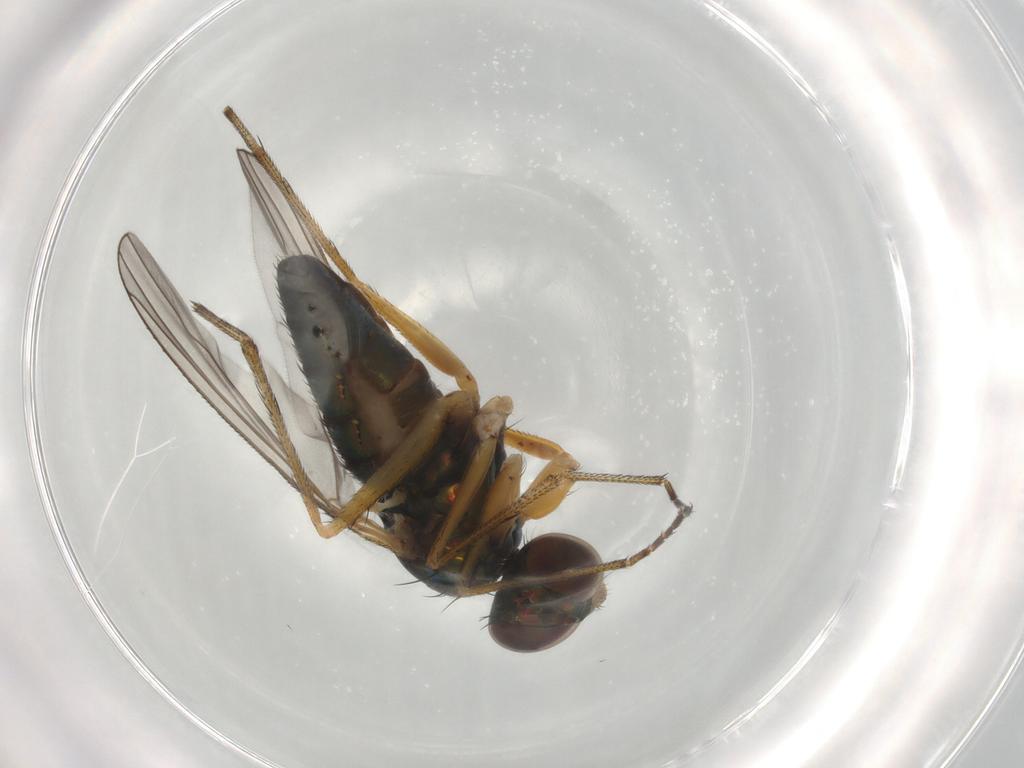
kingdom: Animalia
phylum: Arthropoda
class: Insecta
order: Diptera
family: Dolichopodidae
